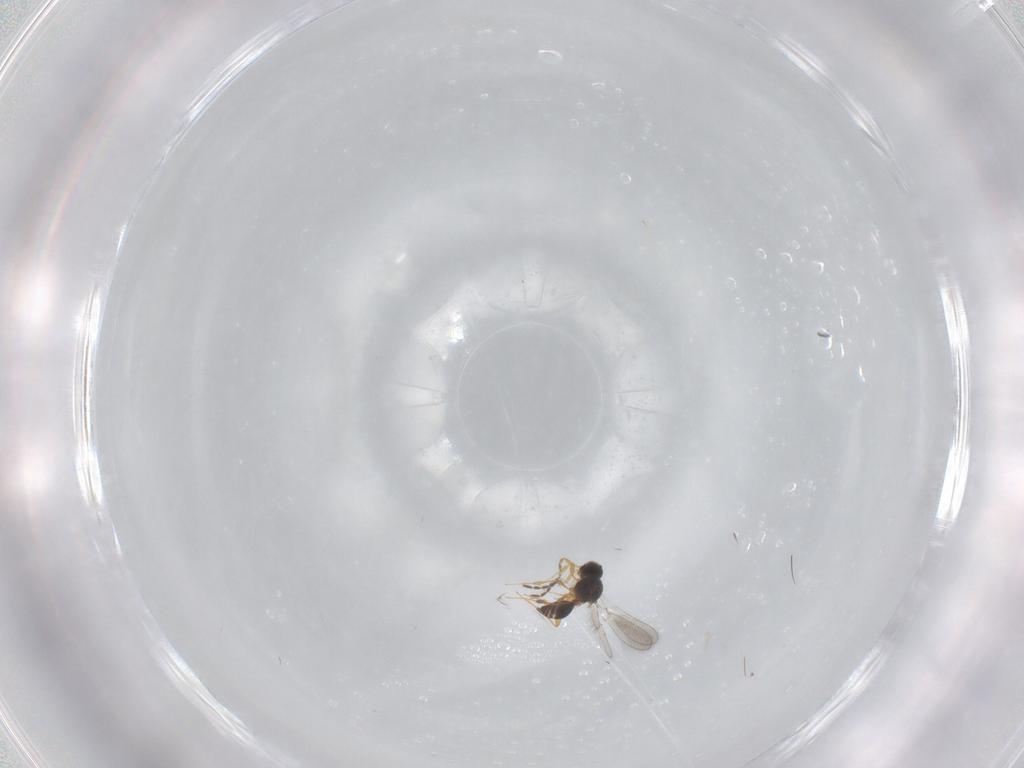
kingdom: Animalia
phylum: Arthropoda
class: Insecta
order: Hymenoptera
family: Platygastridae
